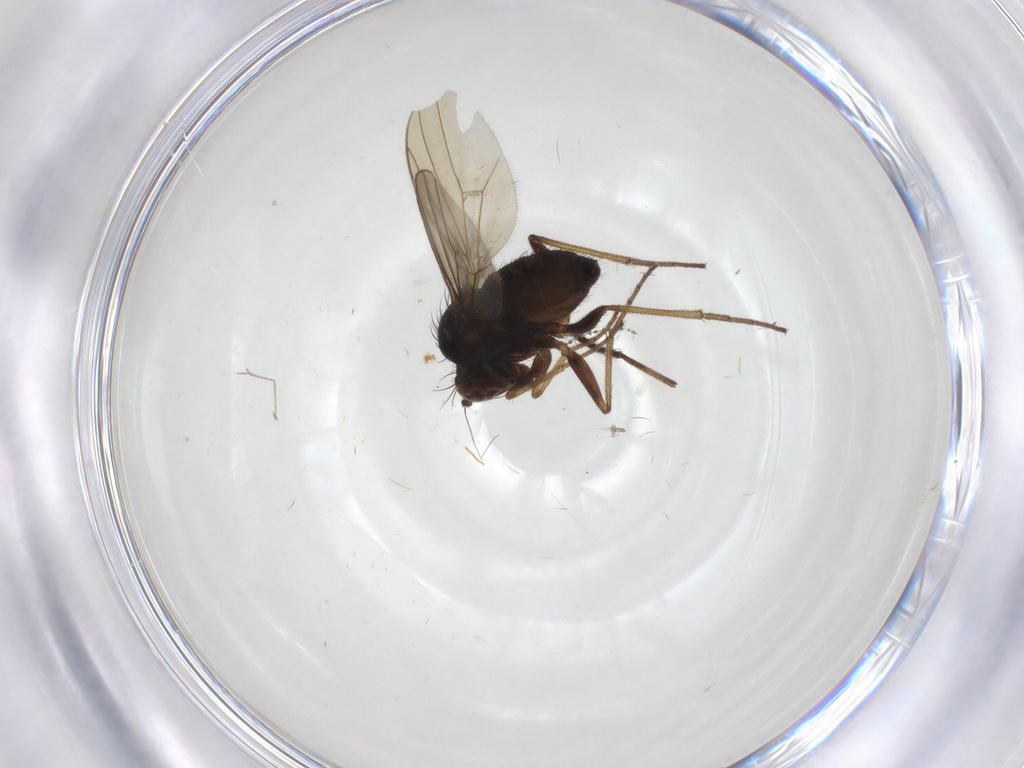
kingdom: Animalia
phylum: Arthropoda
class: Insecta
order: Diptera
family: Dolichopodidae
